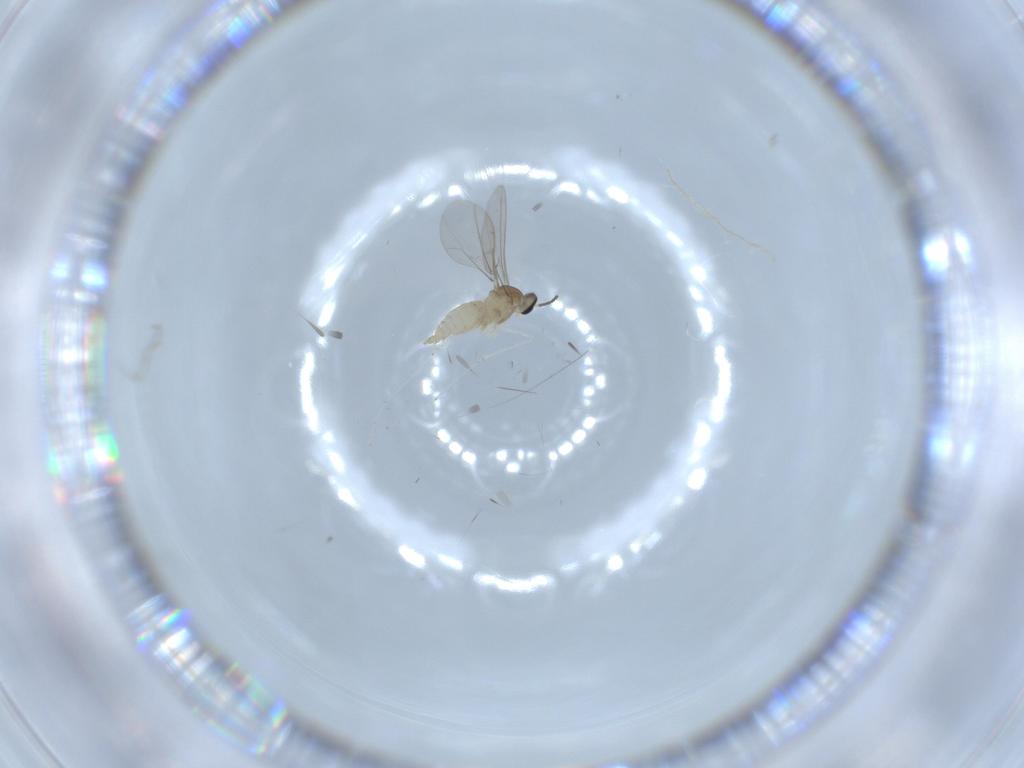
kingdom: Animalia
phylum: Arthropoda
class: Insecta
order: Diptera
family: Cecidomyiidae
